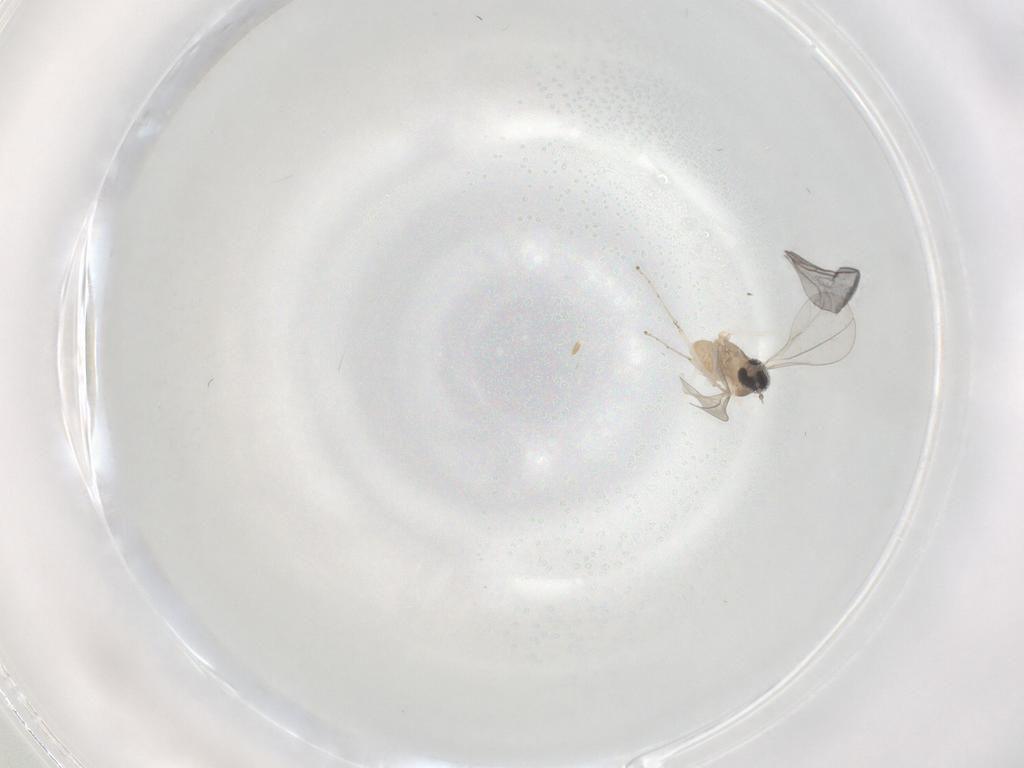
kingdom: Animalia
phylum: Arthropoda
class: Insecta
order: Diptera
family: Cecidomyiidae
